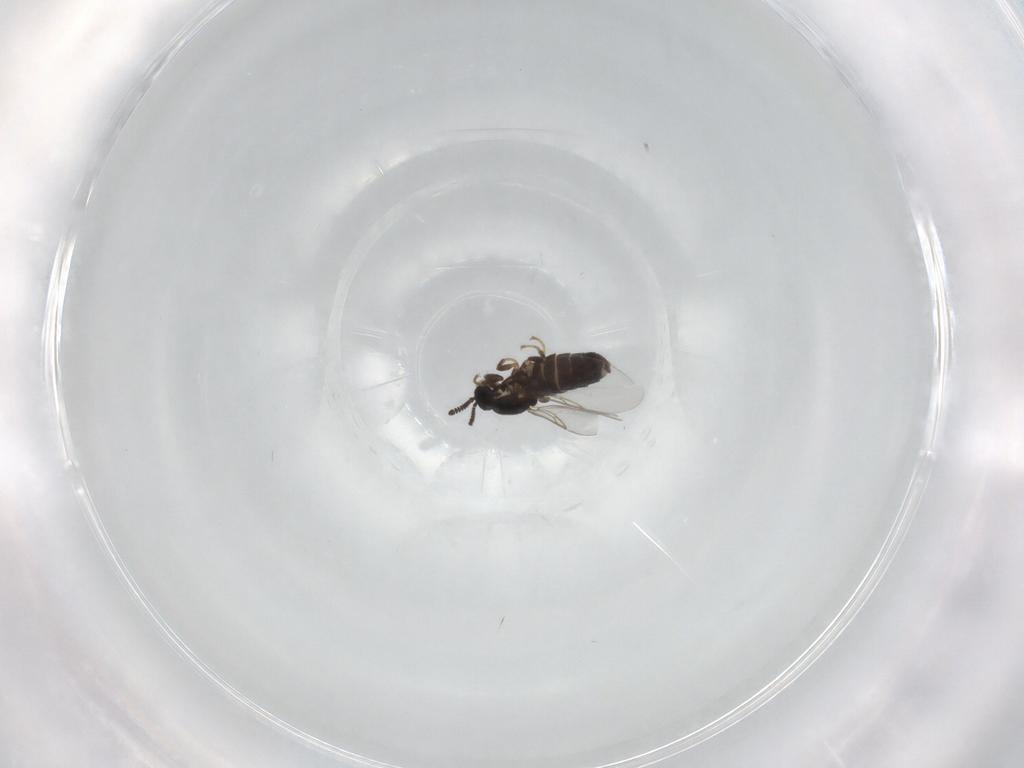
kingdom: Animalia
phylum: Arthropoda
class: Insecta
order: Diptera
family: Scatopsidae
